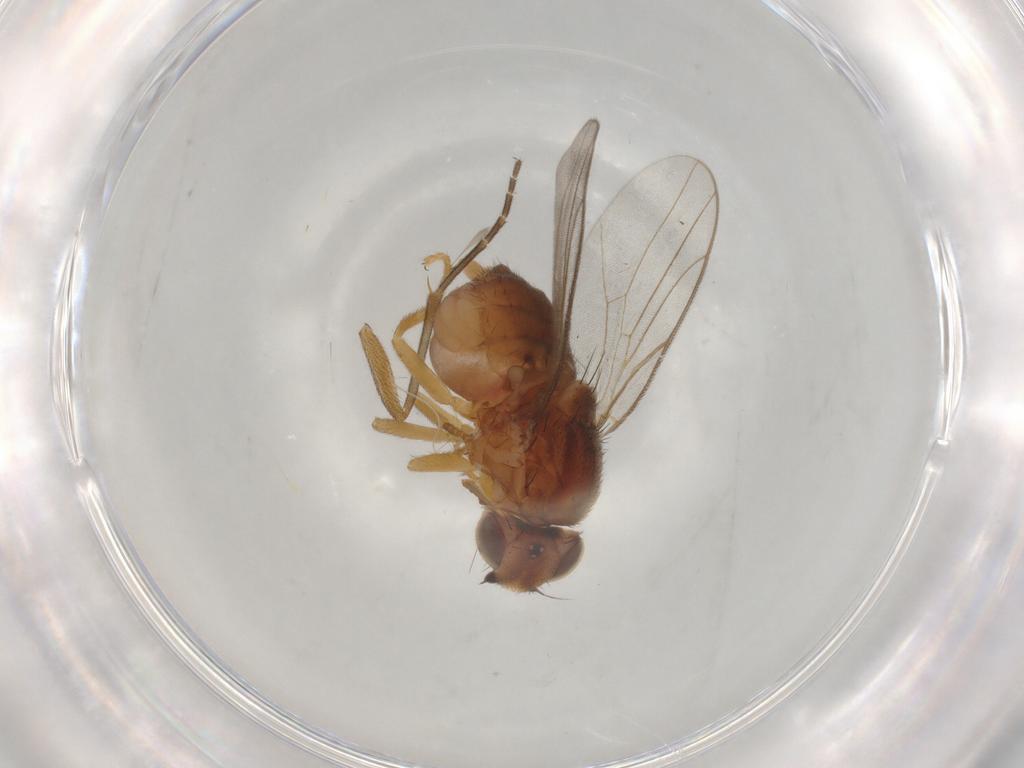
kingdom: Animalia
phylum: Arthropoda
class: Insecta
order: Diptera
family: Chloropidae
